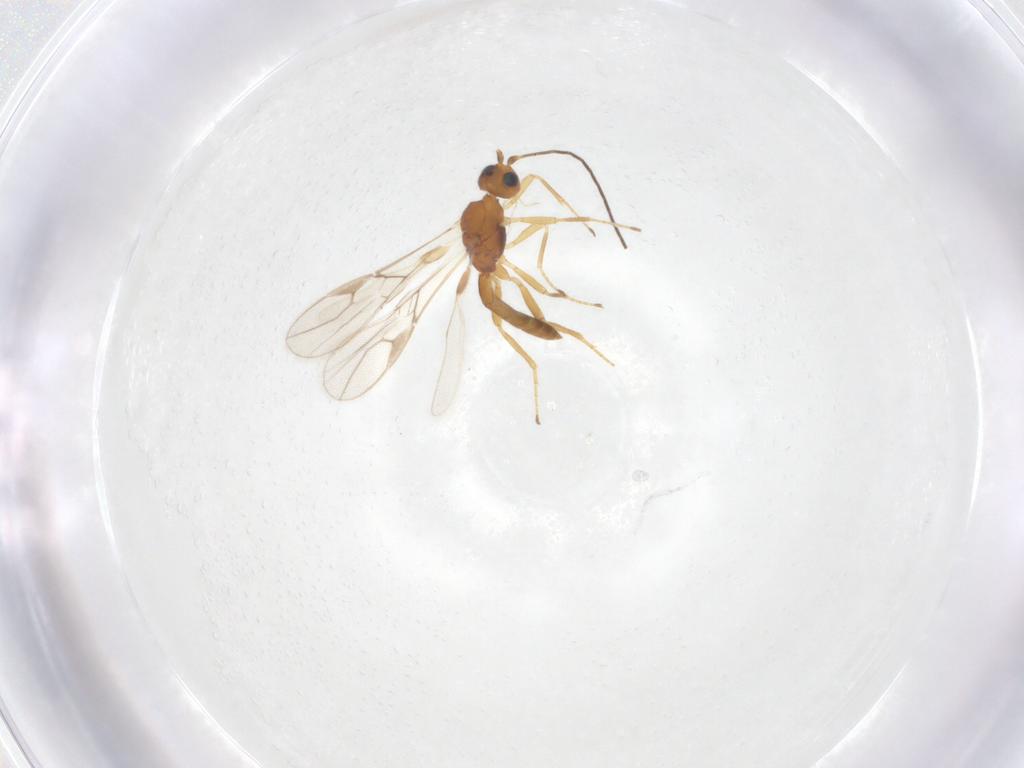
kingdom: Animalia
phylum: Arthropoda
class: Insecta
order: Hymenoptera
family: Braconidae
